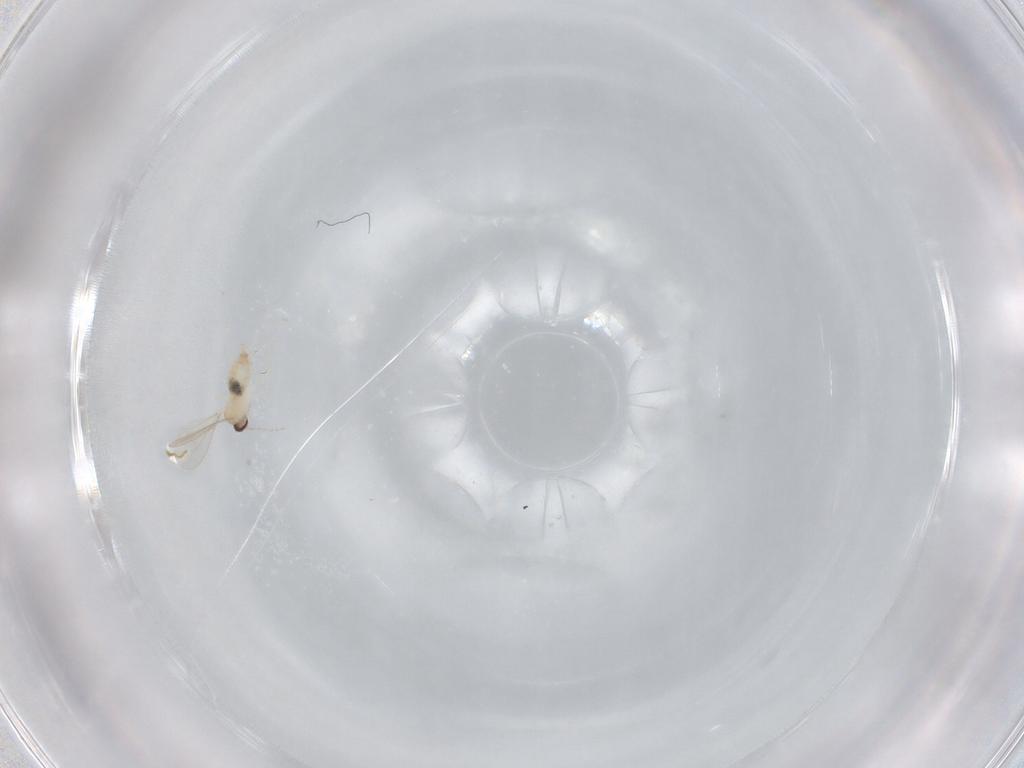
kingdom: Animalia
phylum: Arthropoda
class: Insecta
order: Diptera
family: Cecidomyiidae
